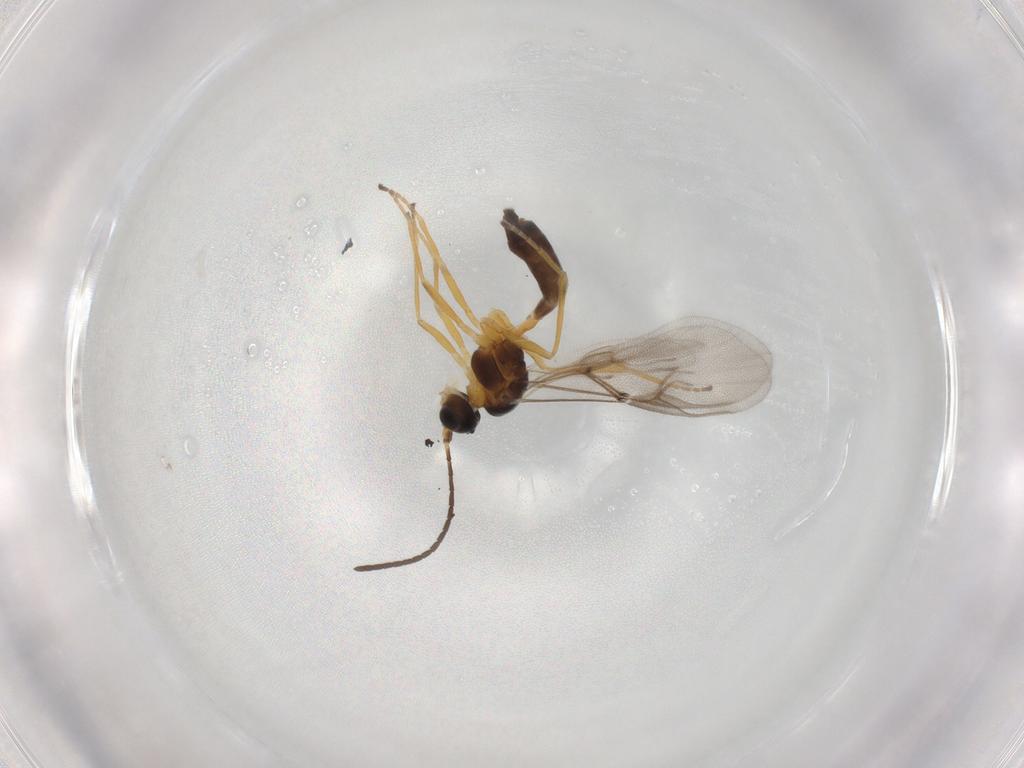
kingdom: Animalia
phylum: Arthropoda
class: Insecta
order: Hymenoptera
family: Braconidae
